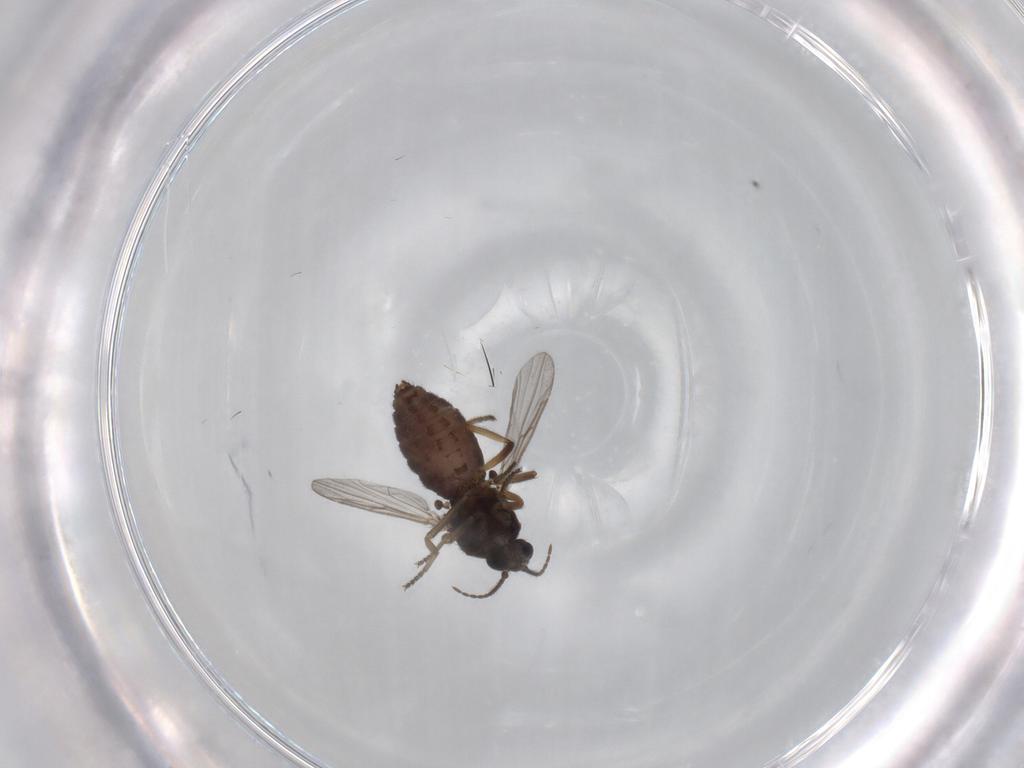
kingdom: Animalia
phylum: Arthropoda
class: Insecta
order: Diptera
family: Ceratopogonidae
